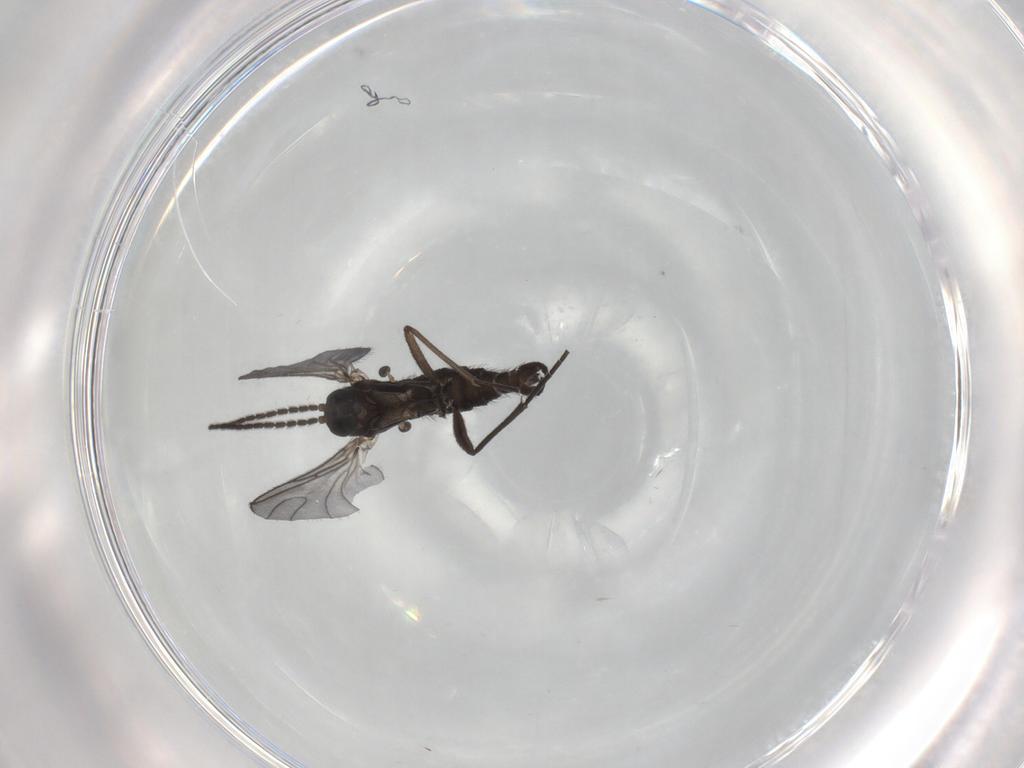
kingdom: Animalia
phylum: Arthropoda
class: Insecta
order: Diptera
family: Sciaridae
